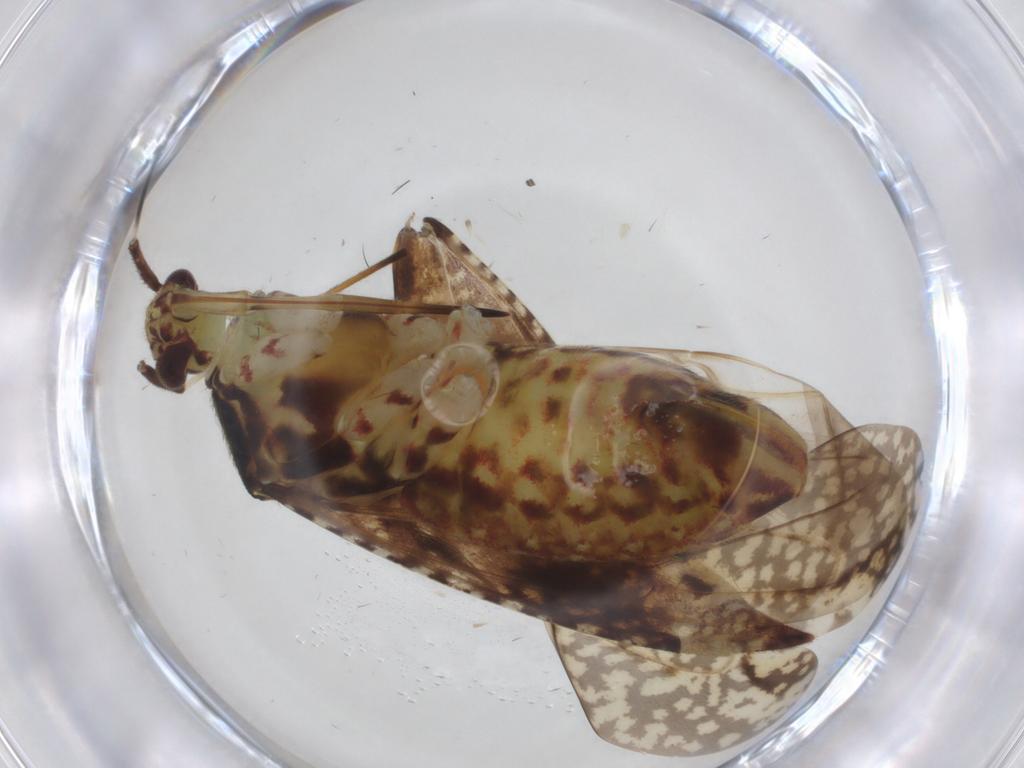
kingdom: Animalia
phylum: Arthropoda
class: Insecta
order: Hemiptera
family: Miridae
